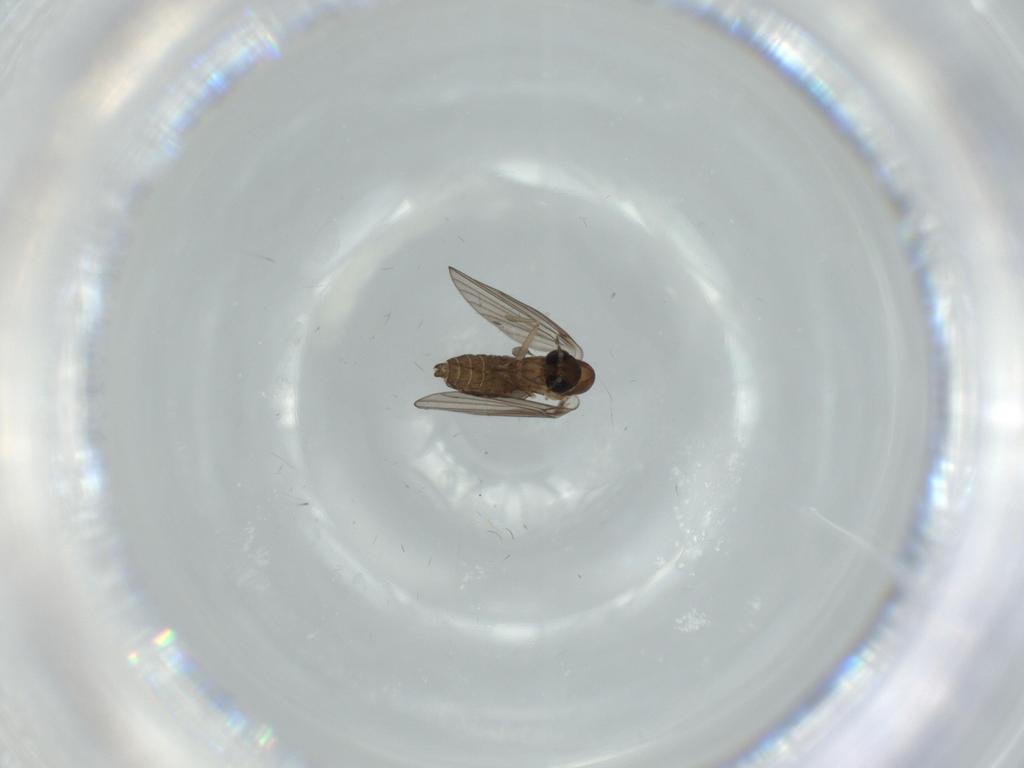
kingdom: Animalia
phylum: Arthropoda
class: Insecta
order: Diptera
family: Psychodidae
